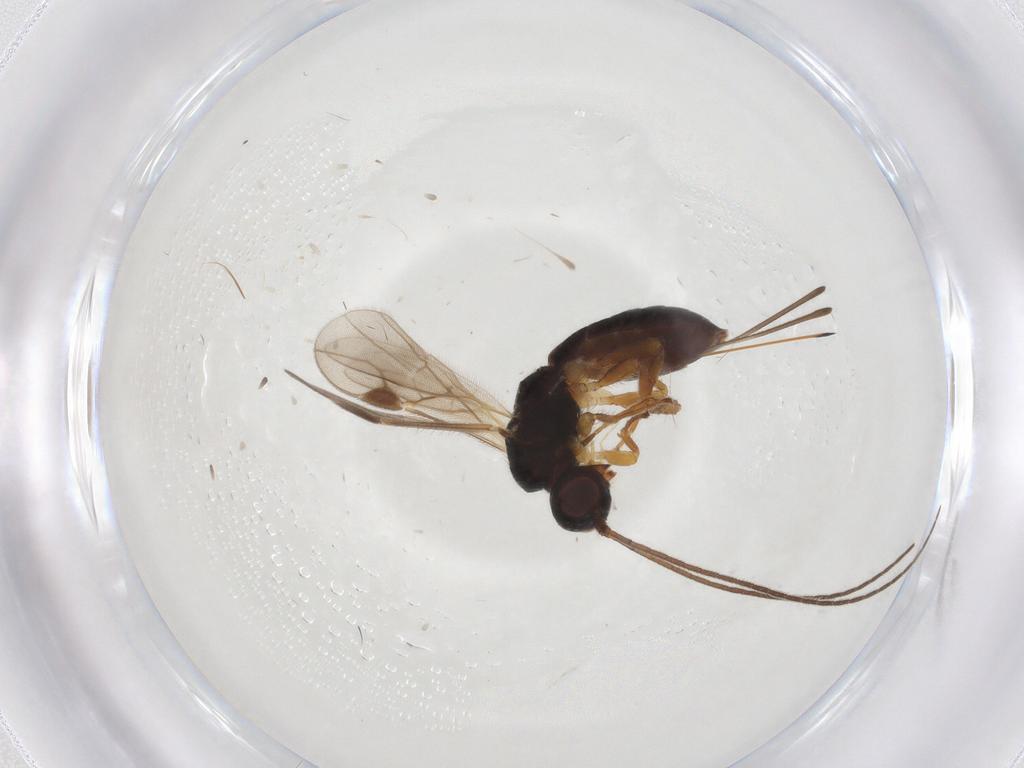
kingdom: Animalia
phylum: Arthropoda
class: Insecta
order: Hymenoptera
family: Braconidae
